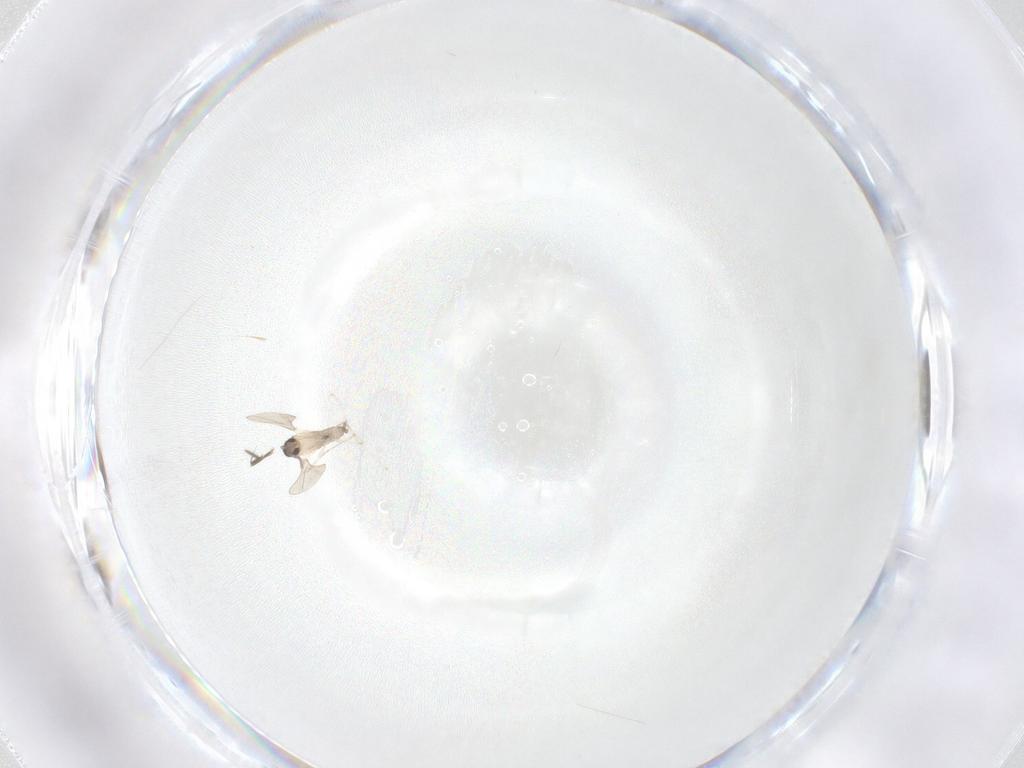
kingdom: Animalia
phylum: Arthropoda
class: Insecta
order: Diptera
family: Cecidomyiidae
